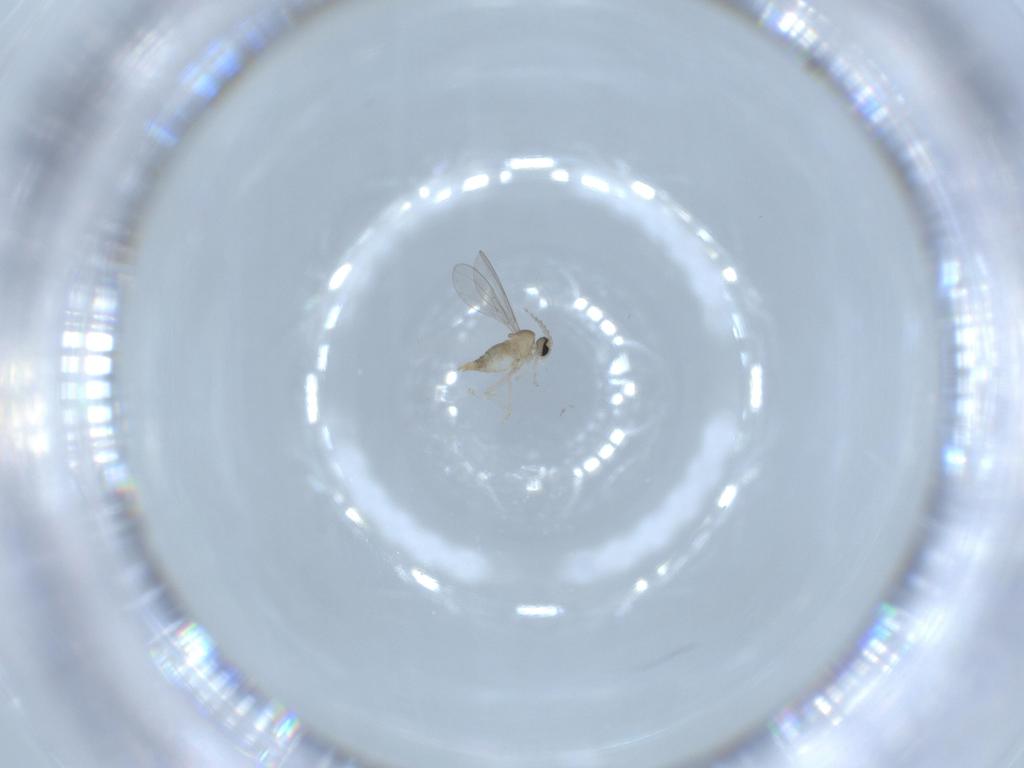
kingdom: Animalia
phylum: Arthropoda
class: Insecta
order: Diptera
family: Cecidomyiidae
